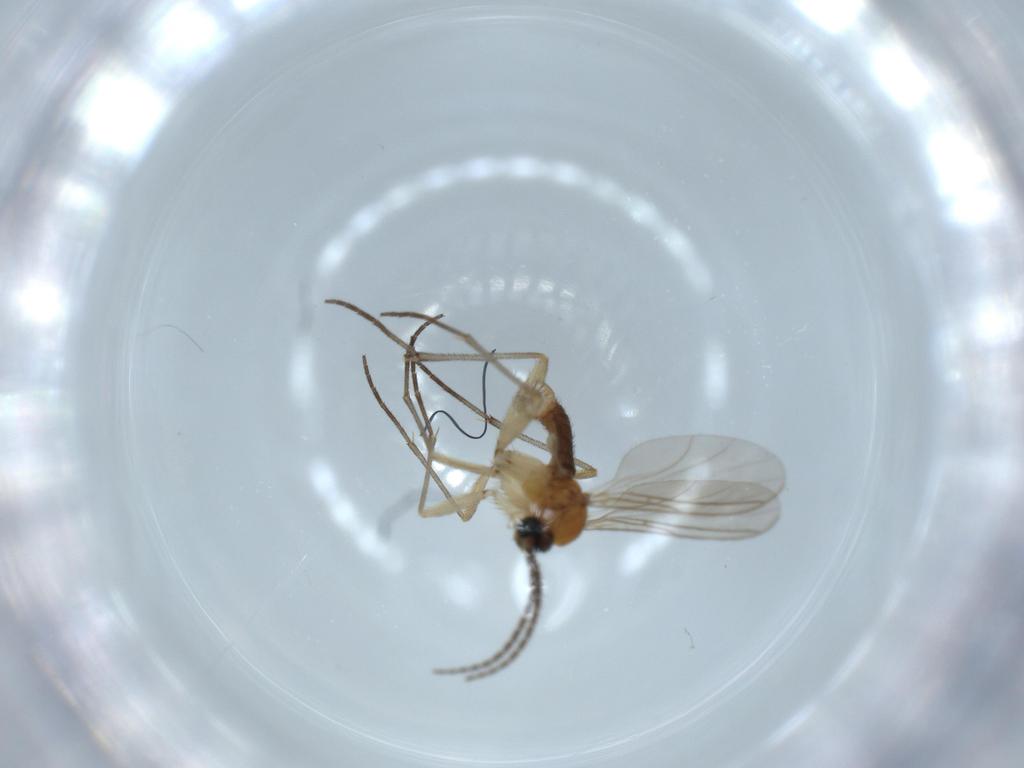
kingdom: Animalia
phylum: Arthropoda
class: Insecta
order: Diptera
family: Sciaridae
